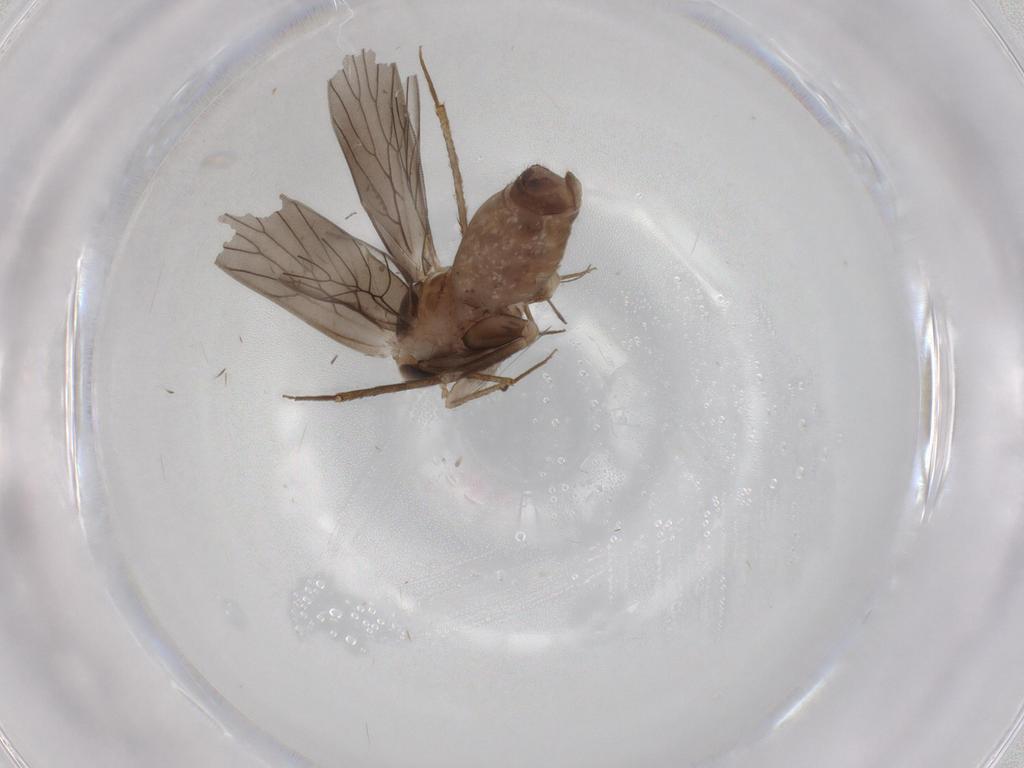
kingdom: Animalia
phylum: Arthropoda
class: Insecta
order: Psocodea
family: Lepidopsocidae
